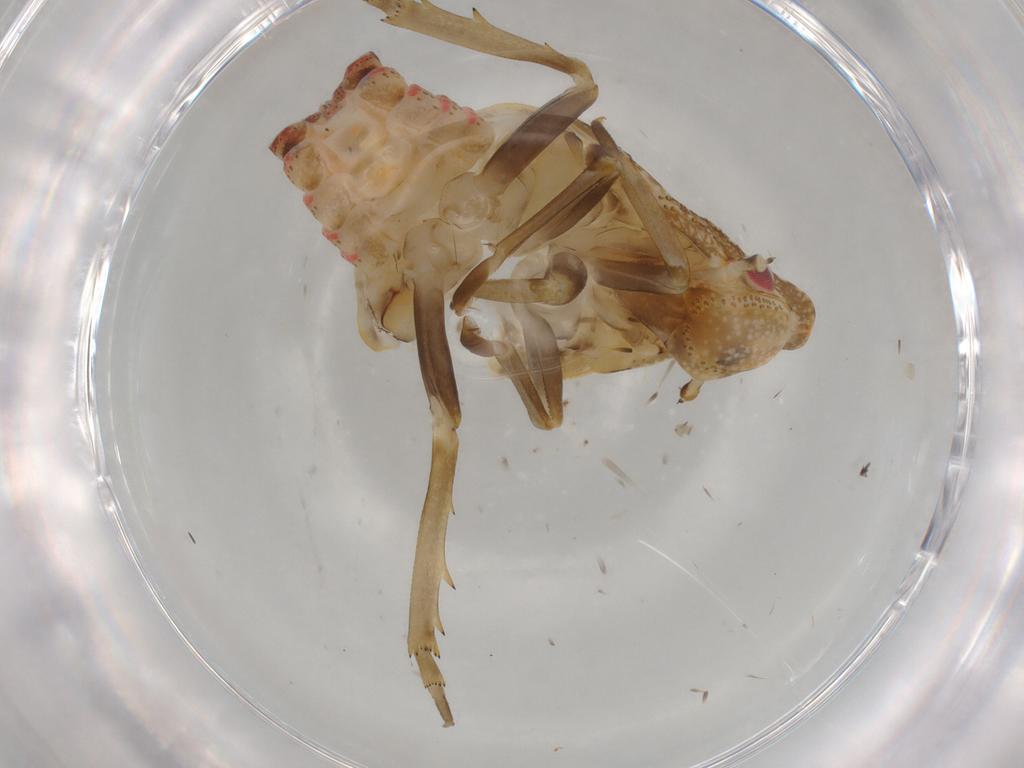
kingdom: Animalia
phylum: Arthropoda
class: Insecta
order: Hemiptera
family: Flatidae
